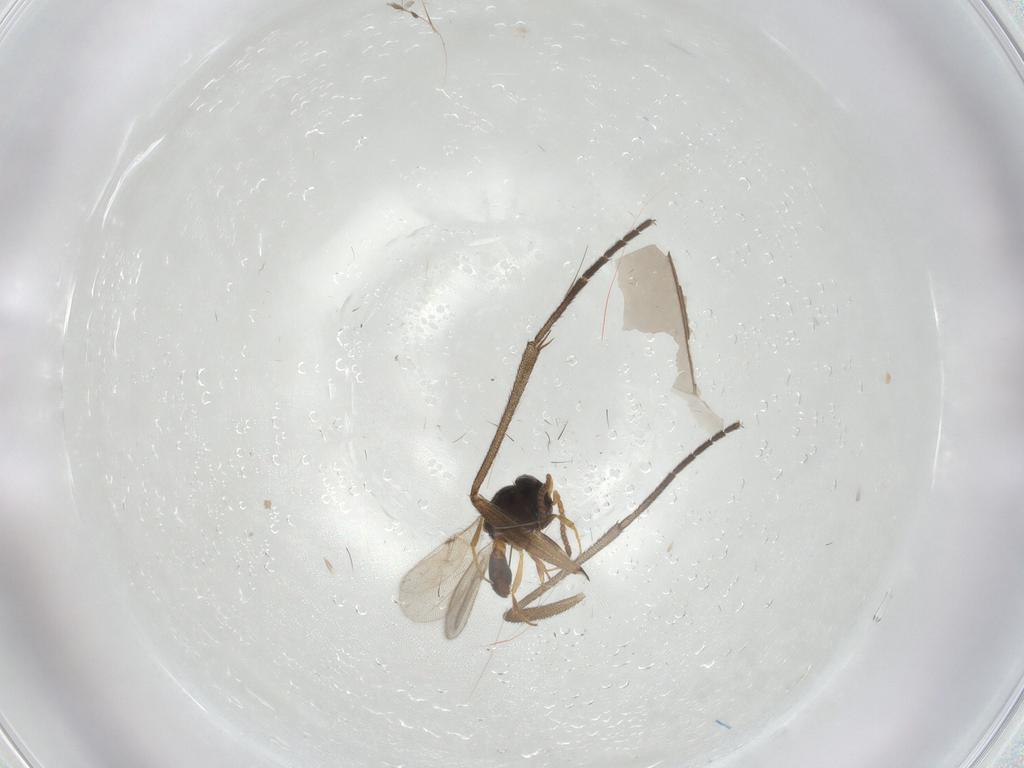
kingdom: Animalia
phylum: Arthropoda
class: Insecta
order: Hymenoptera
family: Scelionidae
